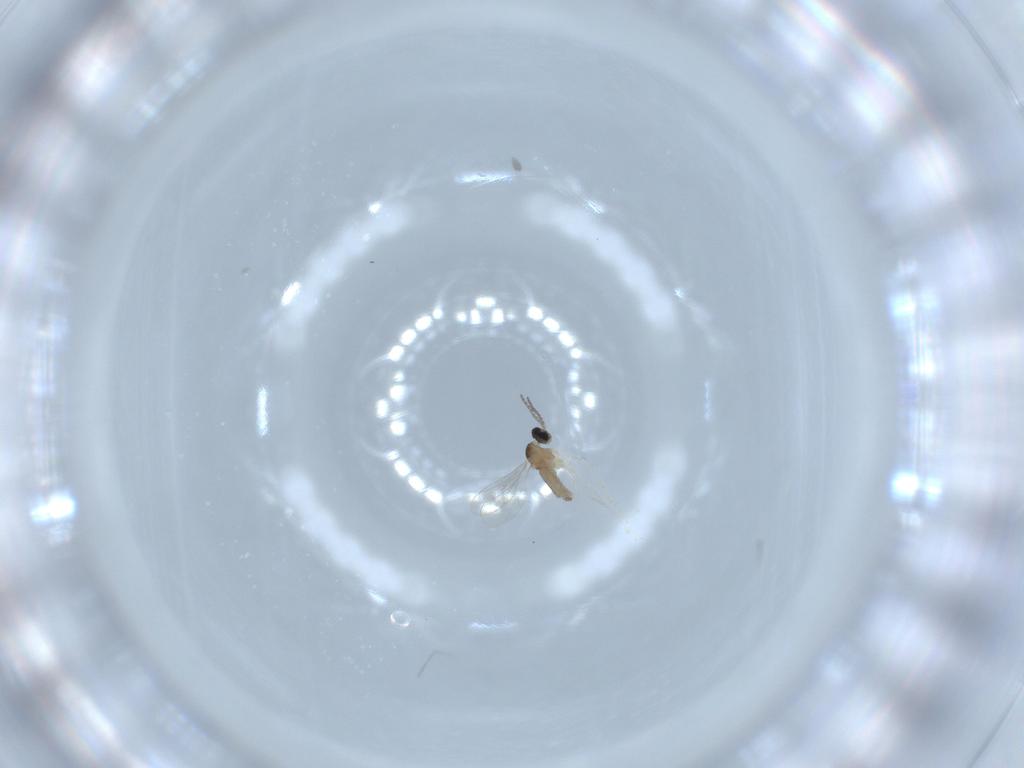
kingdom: Animalia
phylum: Arthropoda
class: Insecta
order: Diptera
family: Cecidomyiidae
